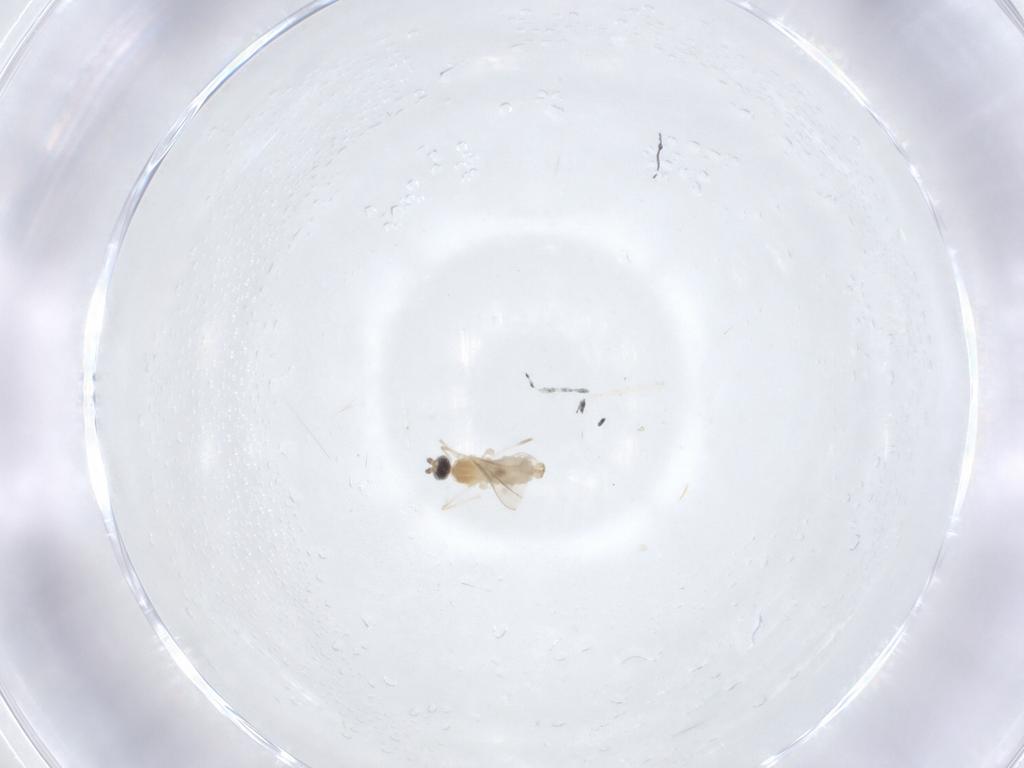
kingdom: Animalia
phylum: Arthropoda
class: Insecta
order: Diptera
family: Cecidomyiidae
